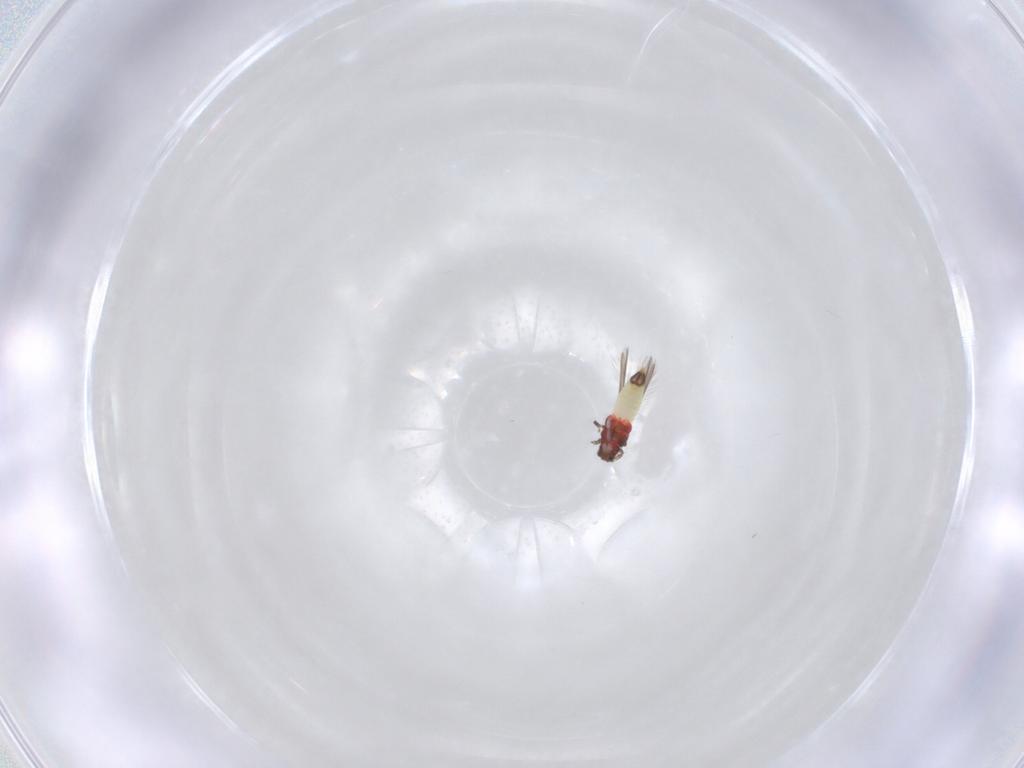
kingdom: Animalia
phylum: Arthropoda
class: Insecta
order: Thysanoptera
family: Thripidae
